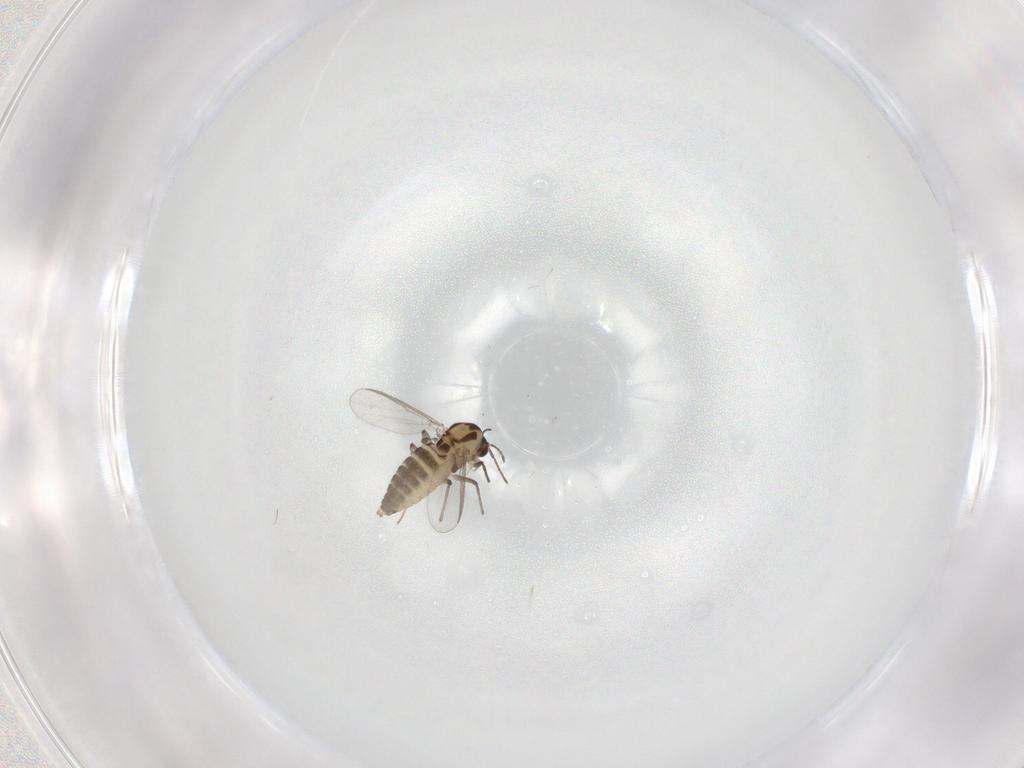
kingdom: Animalia
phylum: Arthropoda
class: Insecta
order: Diptera
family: Chironomidae
